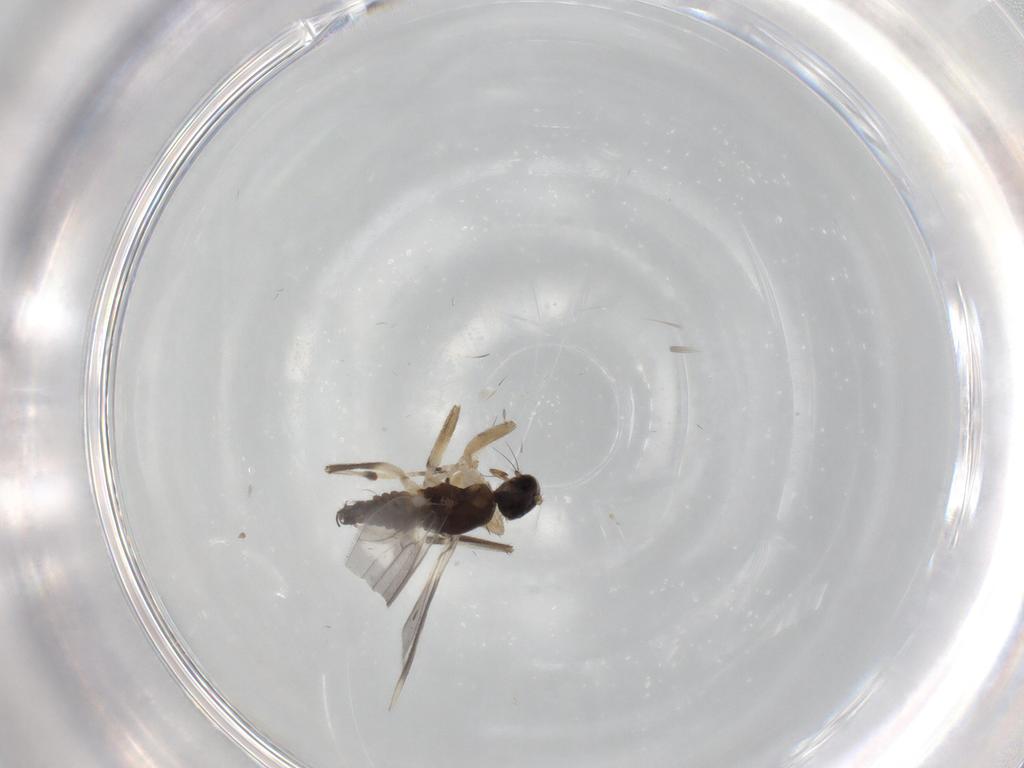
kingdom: Animalia
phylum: Arthropoda
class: Insecta
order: Diptera
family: Hybotidae
